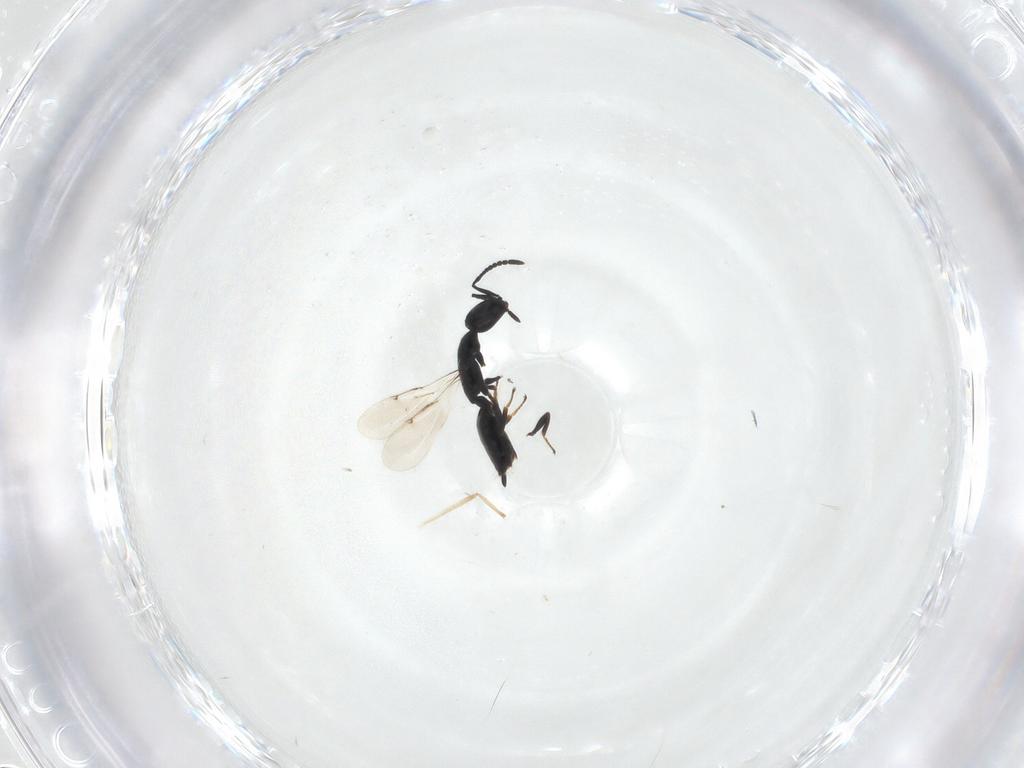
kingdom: Animalia
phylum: Arthropoda
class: Insecta
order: Hymenoptera
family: Spalangiidae
